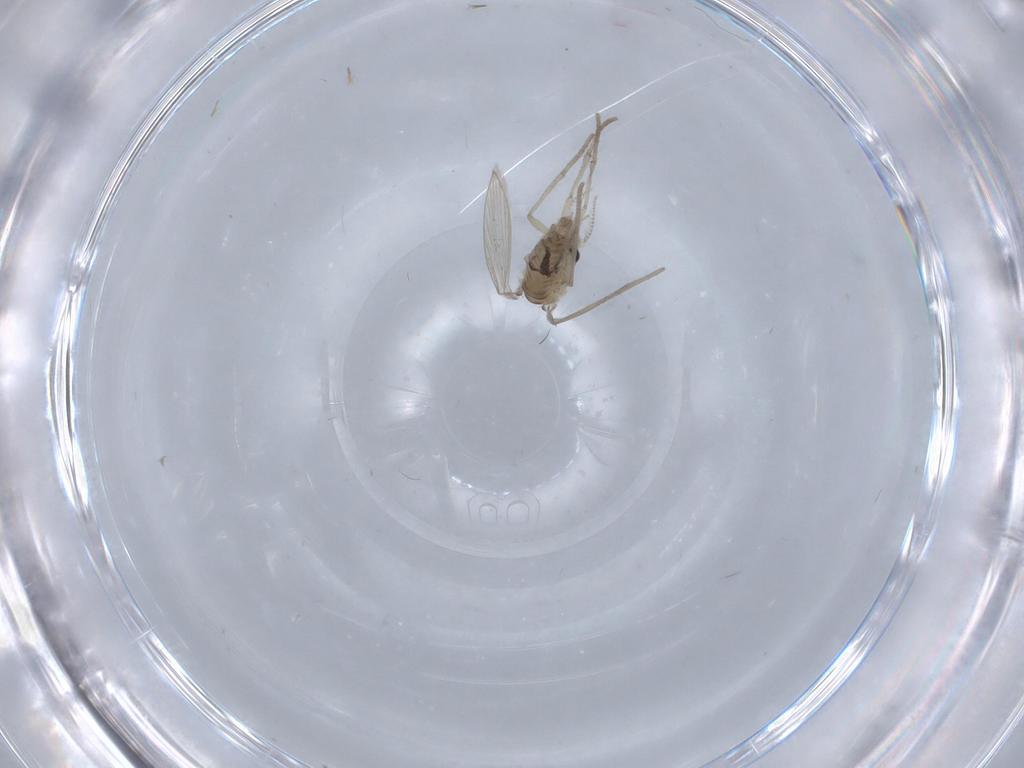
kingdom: Animalia
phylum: Arthropoda
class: Insecta
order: Diptera
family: Psychodidae
